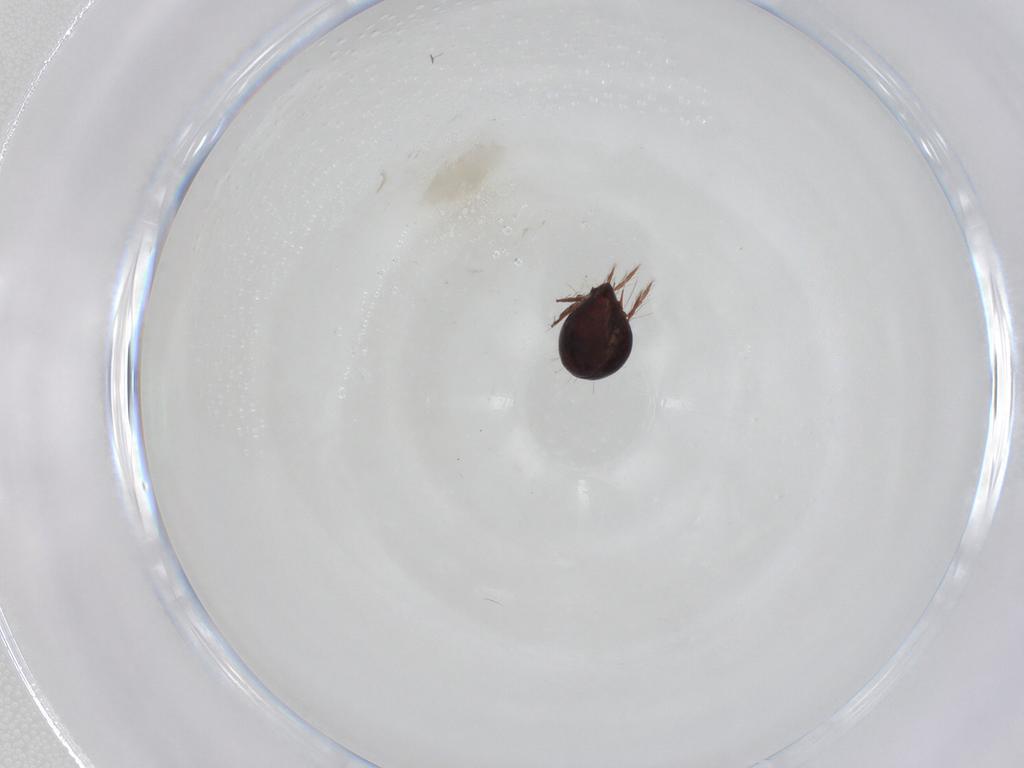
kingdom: Animalia
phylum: Arthropoda
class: Arachnida
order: Sarcoptiformes
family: Ceratoppiidae
